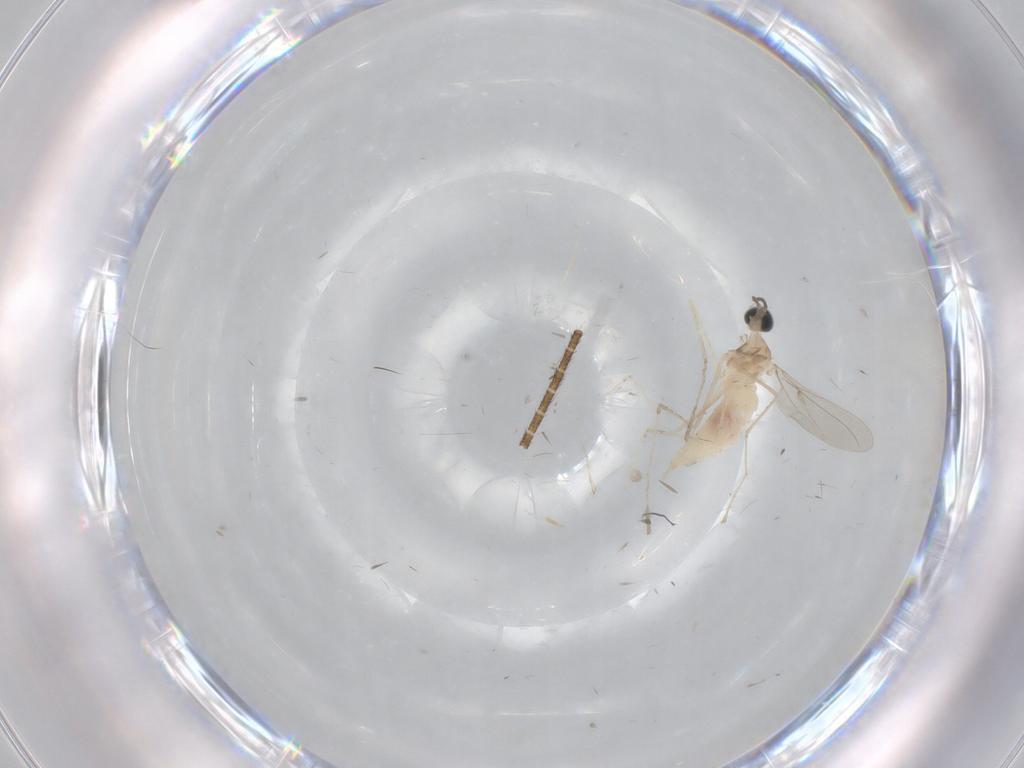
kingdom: Animalia
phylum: Arthropoda
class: Insecta
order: Diptera
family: Cecidomyiidae
